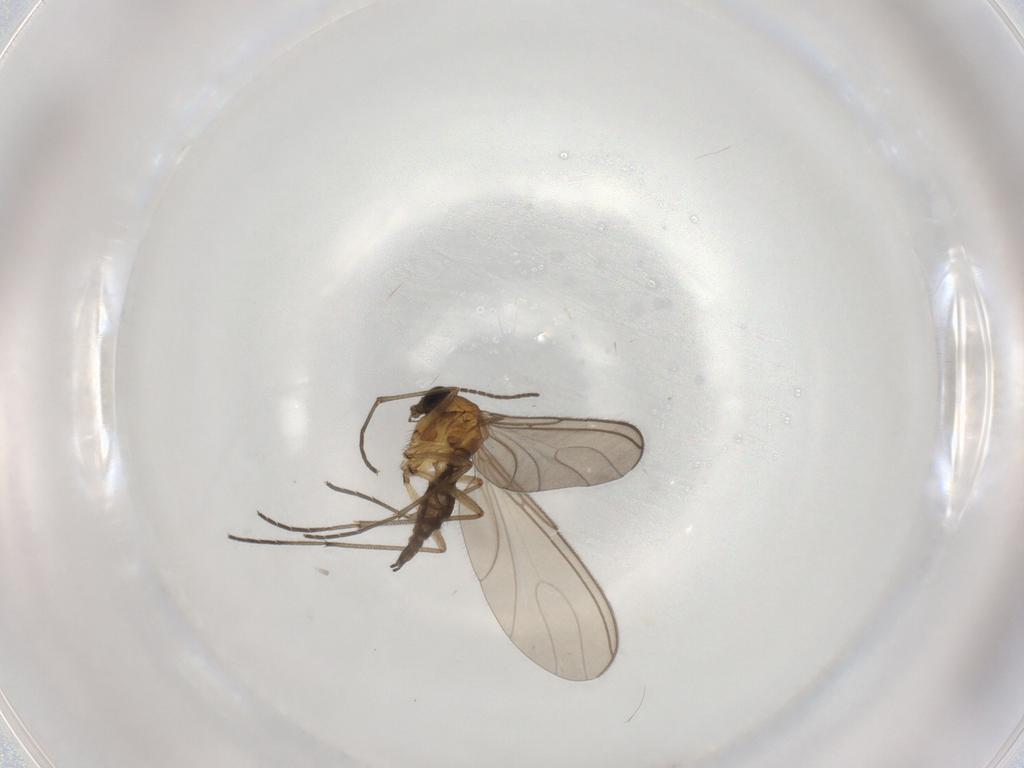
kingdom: Animalia
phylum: Arthropoda
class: Insecta
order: Diptera
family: Sciaridae
